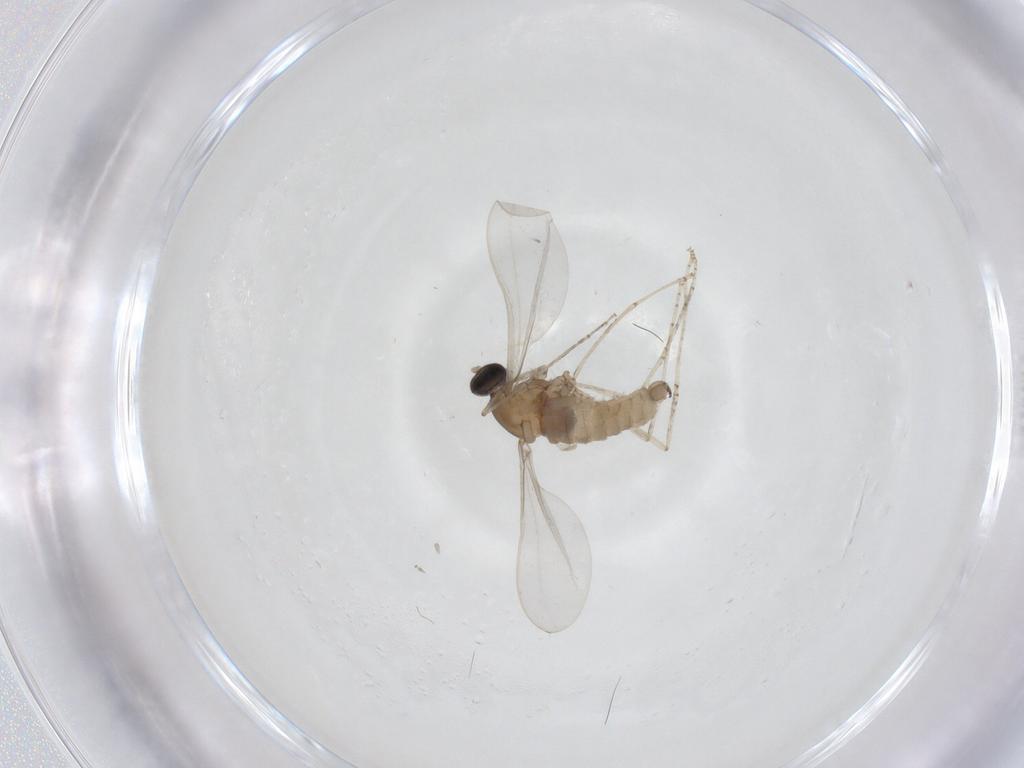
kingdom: Animalia
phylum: Arthropoda
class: Insecta
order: Diptera
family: Cecidomyiidae
